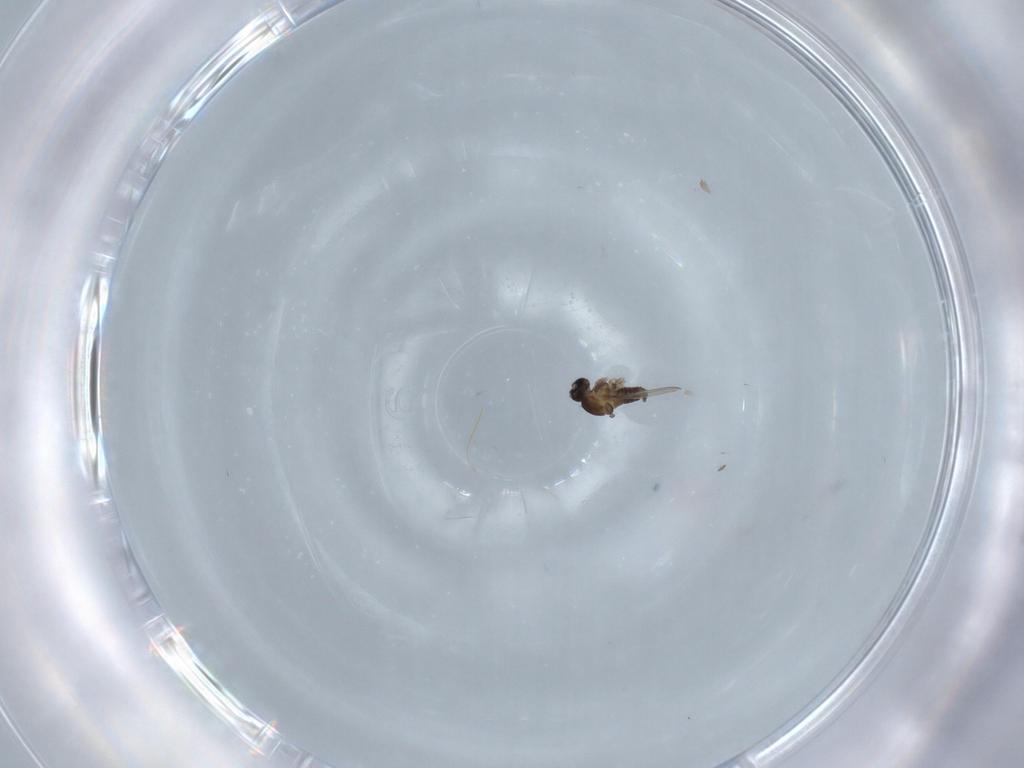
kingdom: Animalia
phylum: Arthropoda
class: Insecta
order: Diptera
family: Cecidomyiidae
